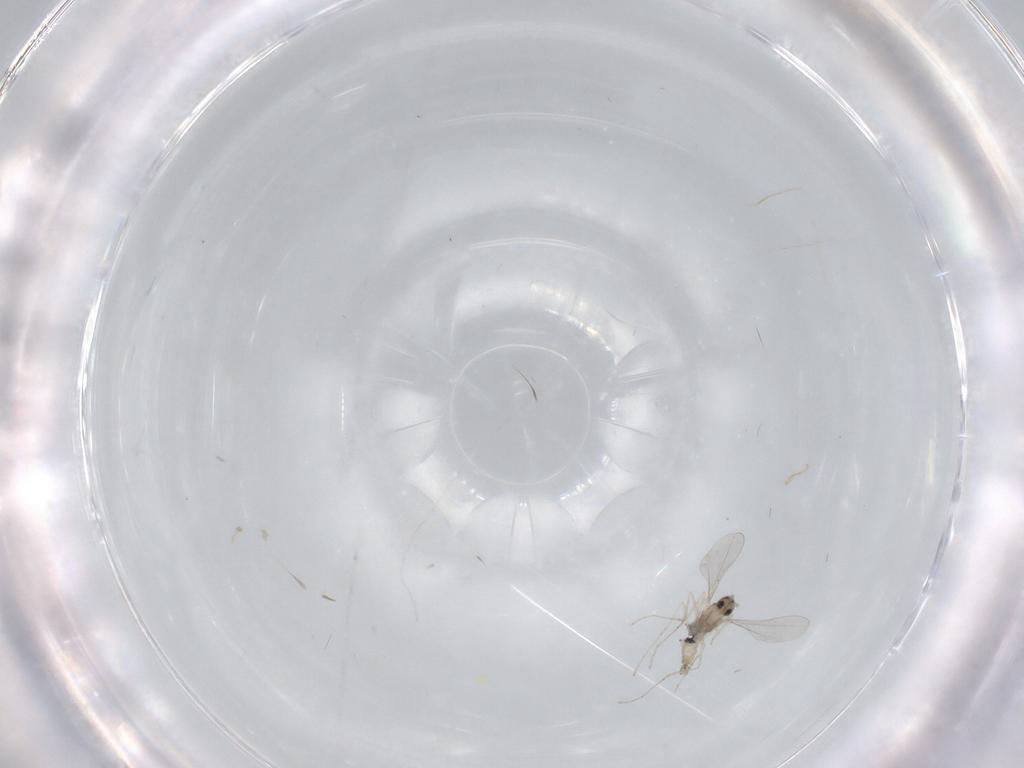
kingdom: Animalia
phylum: Arthropoda
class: Insecta
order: Diptera
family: Cecidomyiidae
